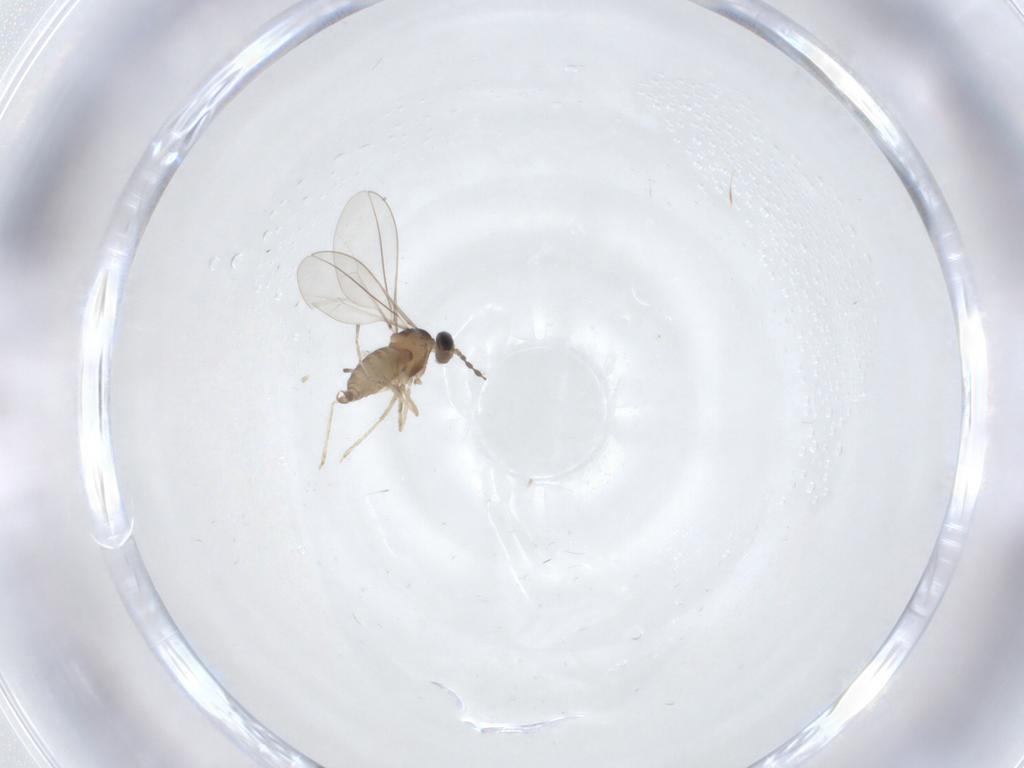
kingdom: Animalia
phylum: Arthropoda
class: Insecta
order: Diptera
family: Cecidomyiidae
